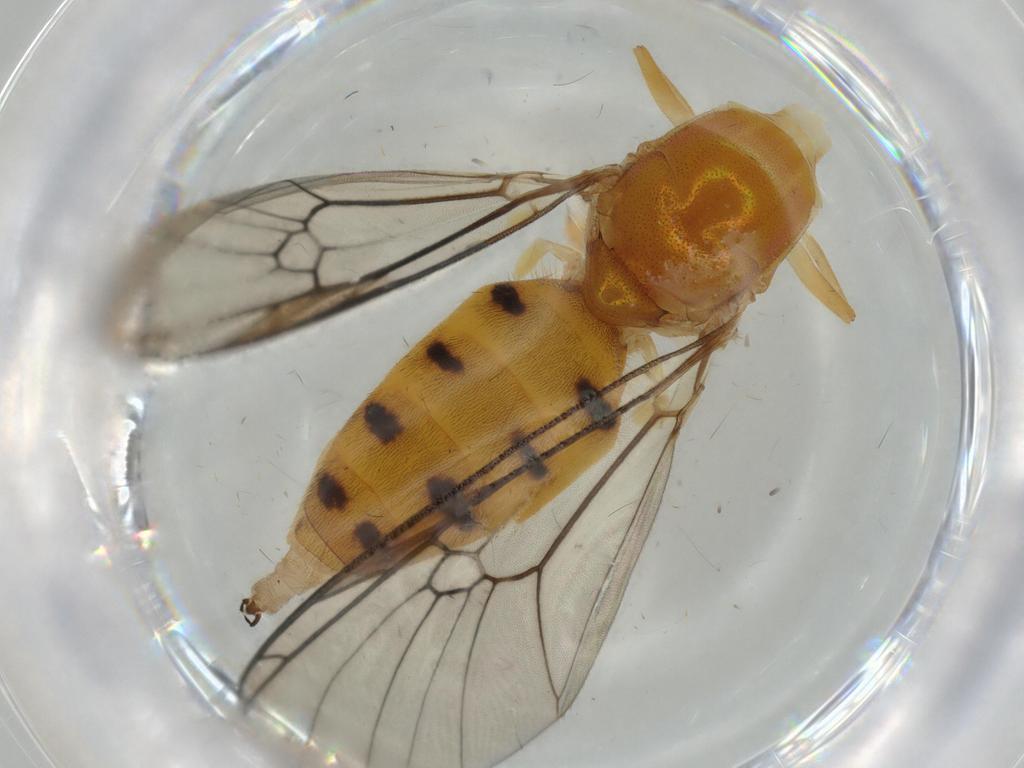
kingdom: Animalia
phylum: Arthropoda
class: Insecta
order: Diptera
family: Stratiomyidae
